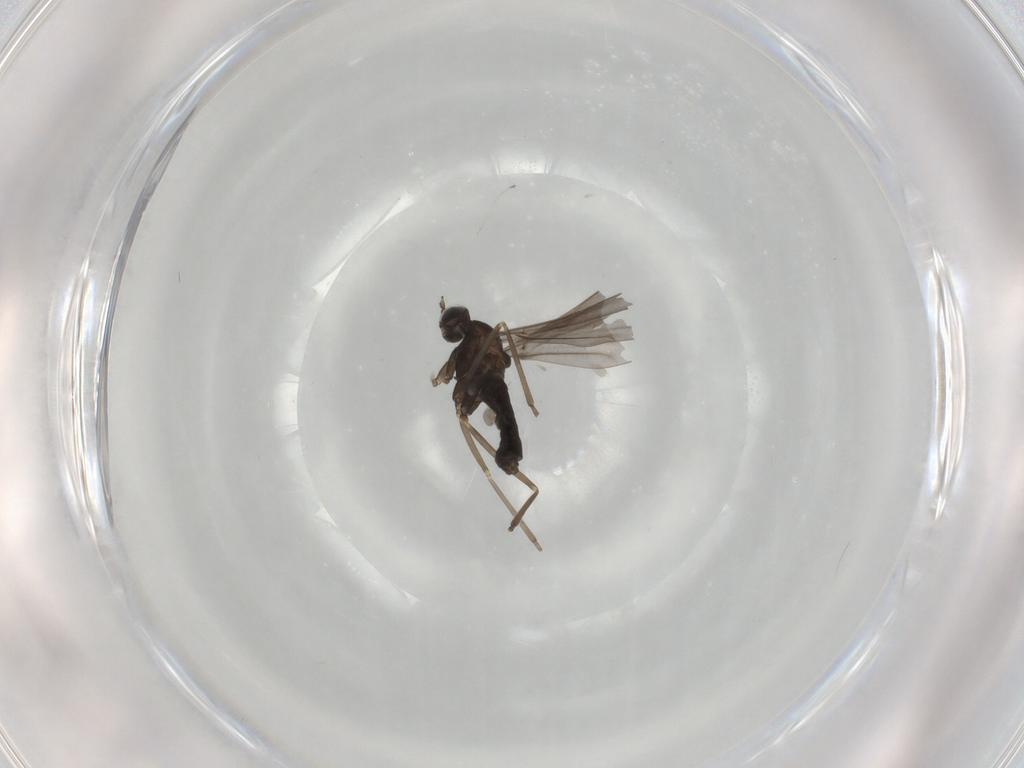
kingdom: Animalia
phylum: Arthropoda
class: Insecta
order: Diptera
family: Cecidomyiidae
